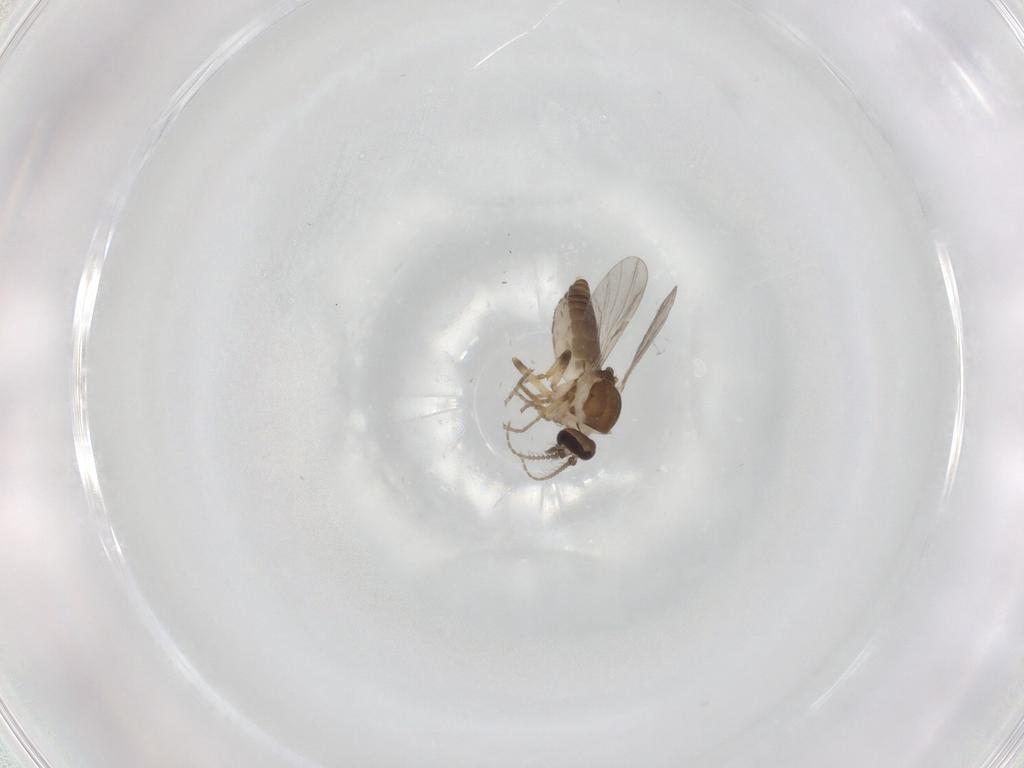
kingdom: Animalia
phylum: Arthropoda
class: Insecta
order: Diptera
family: Ceratopogonidae
